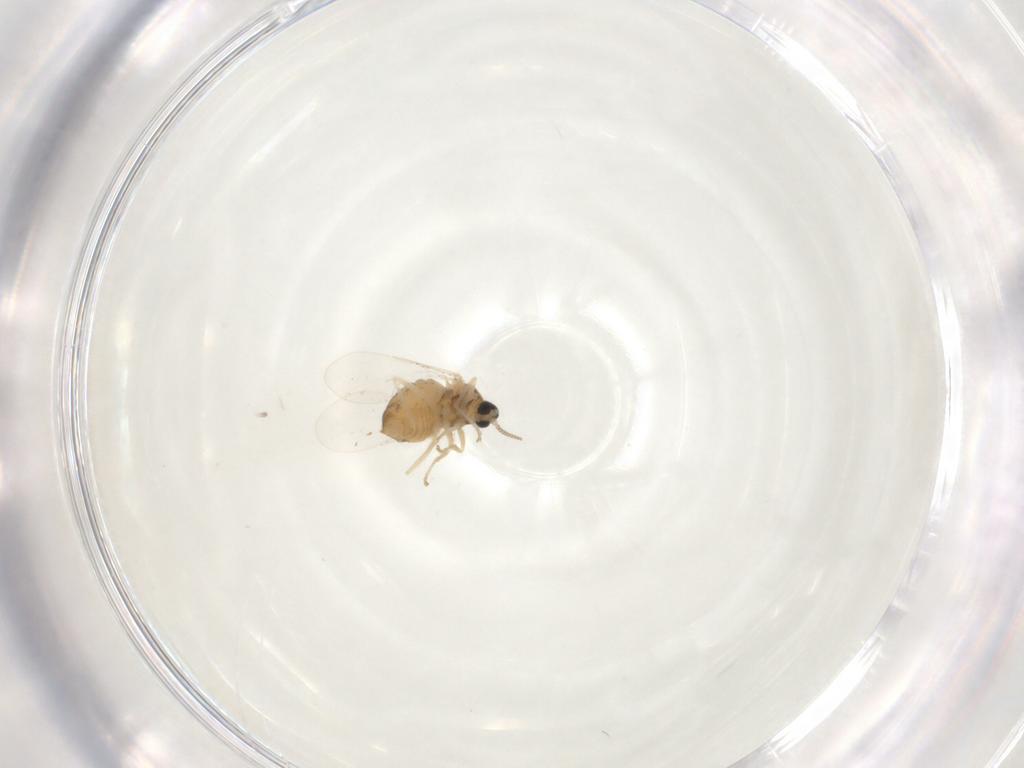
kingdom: Animalia
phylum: Arthropoda
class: Insecta
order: Diptera
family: Cecidomyiidae
